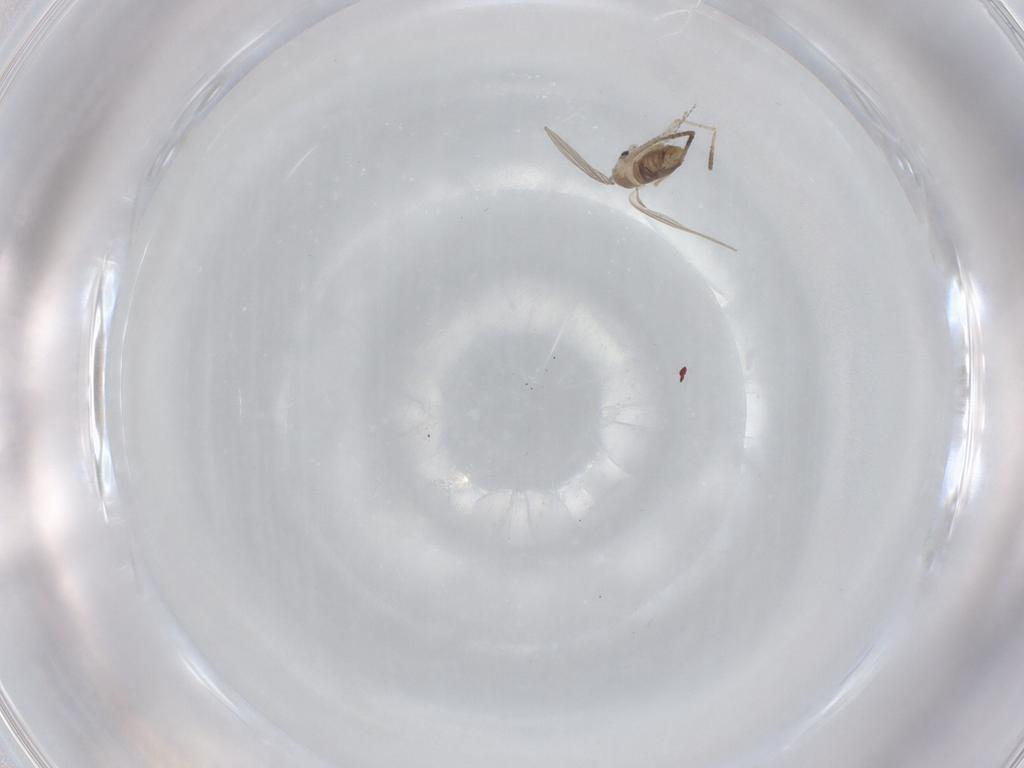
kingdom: Animalia
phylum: Arthropoda
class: Insecta
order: Diptera
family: Psychodidae
